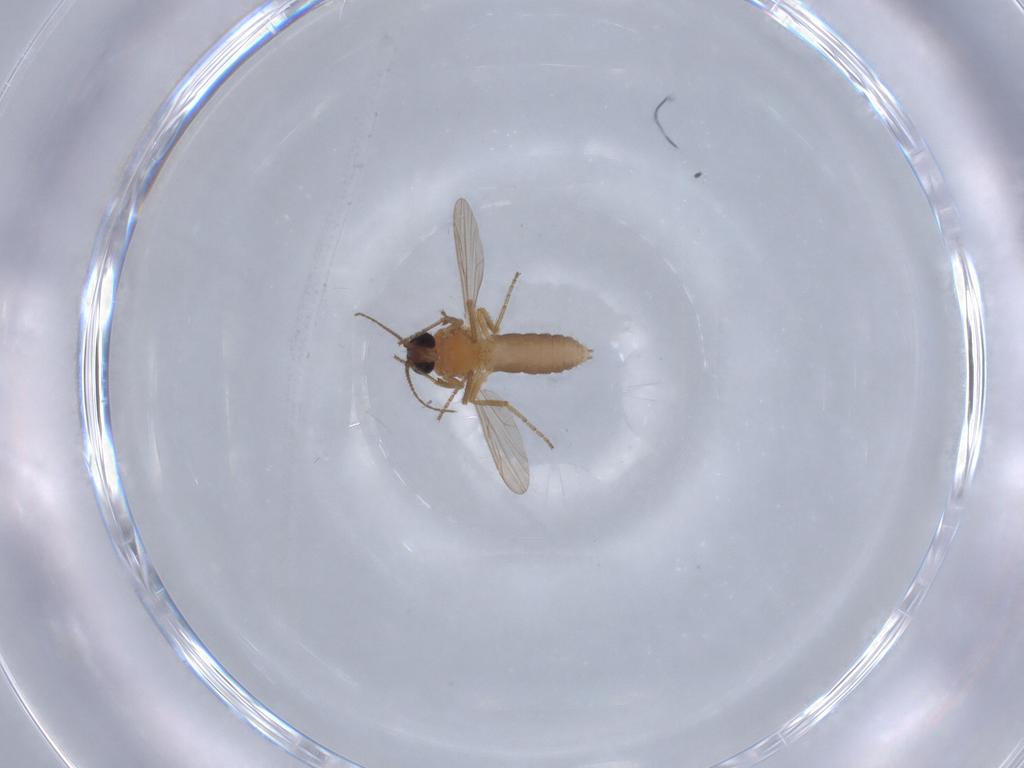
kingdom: Animalia
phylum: Arthropoda
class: Insecta
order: Diptera
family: Ceratopogonidae
